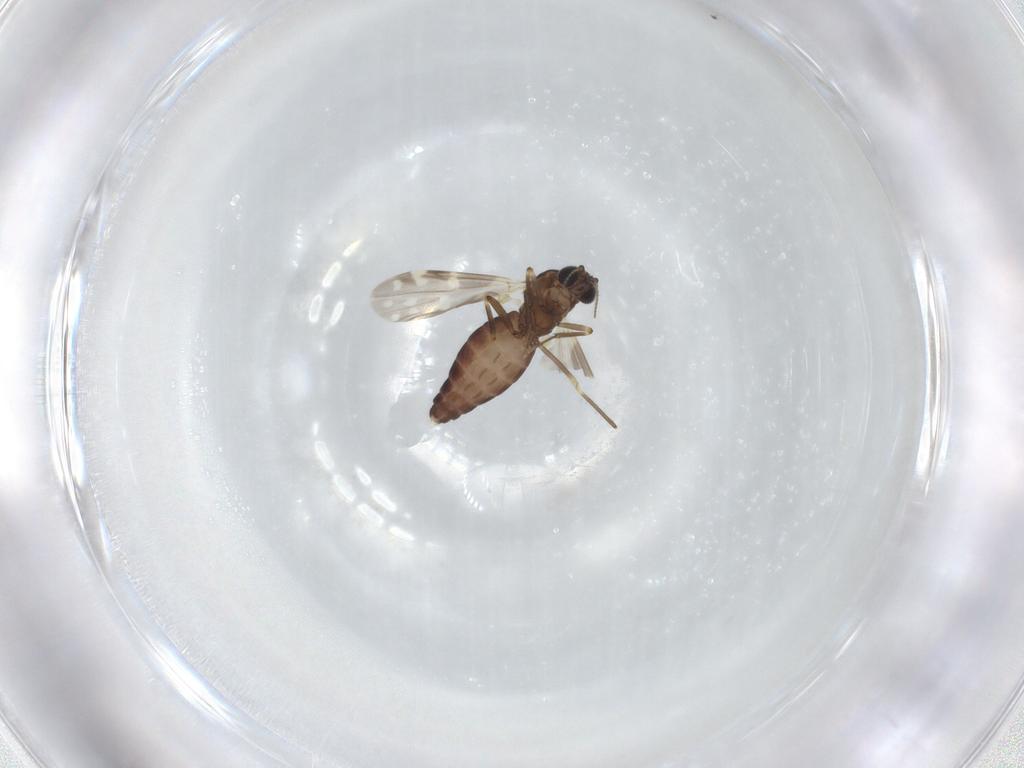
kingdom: Animalia
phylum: Arthropoda
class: Insecta
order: Diptera
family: Ceratopogonidae
